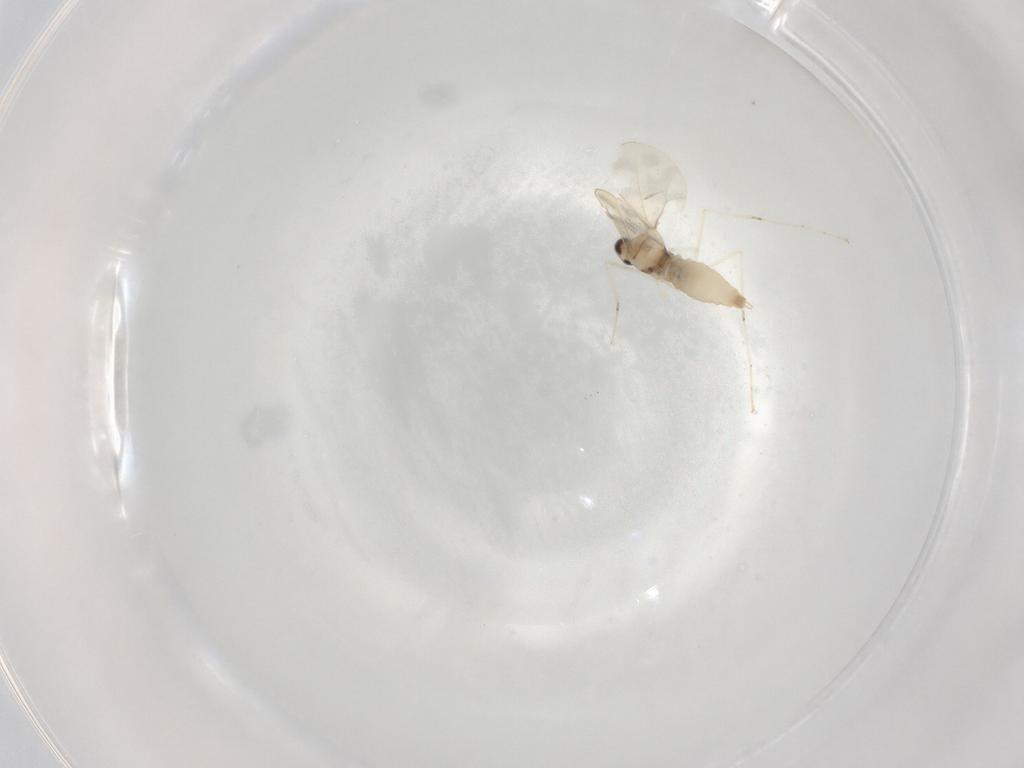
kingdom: Animalia
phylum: Arthropoda
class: Insecta
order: Diptera
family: Cecidomyiidae
